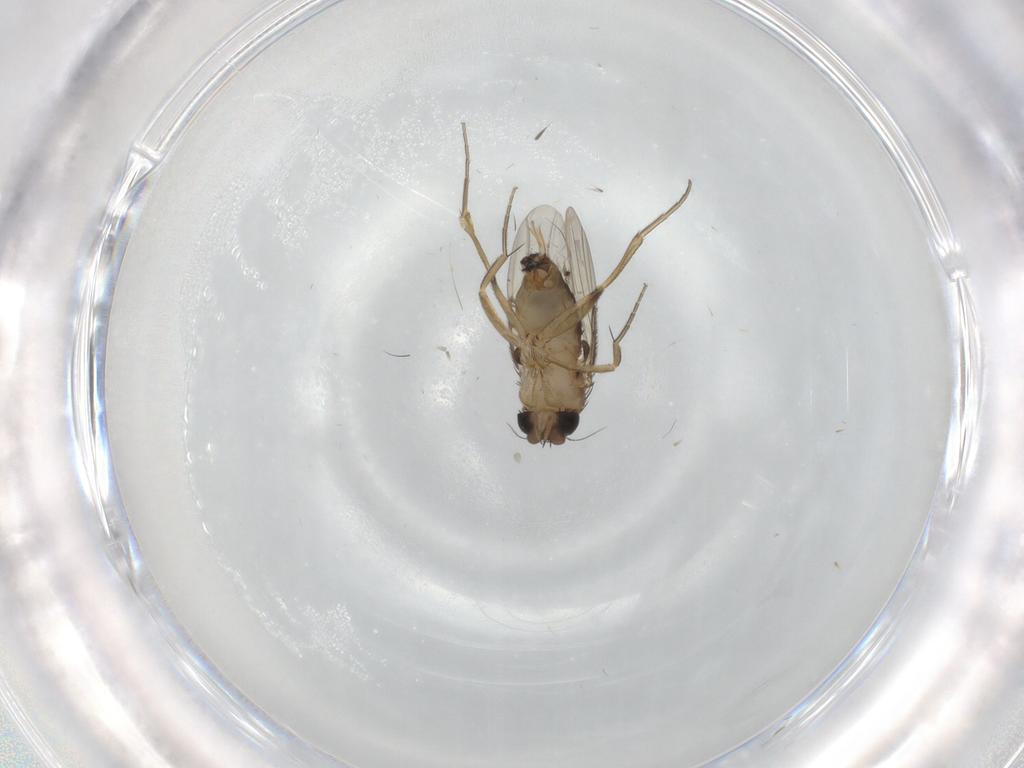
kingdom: Animalia
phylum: Arthropoda
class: Insecta
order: Diptera
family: Phoridae
